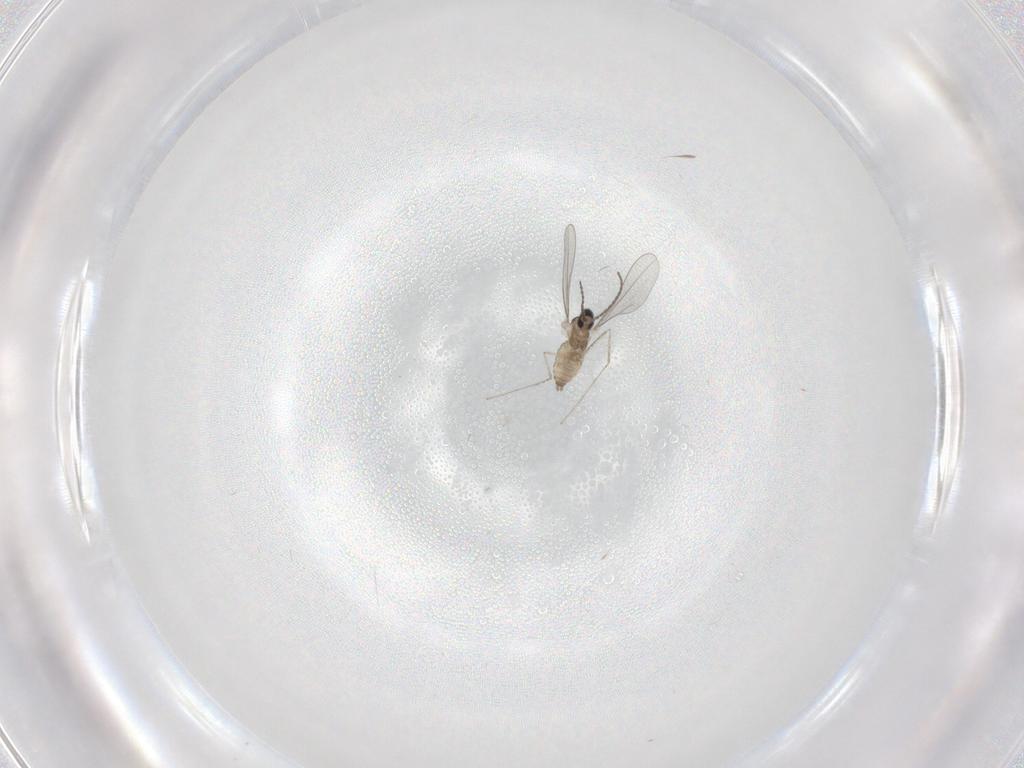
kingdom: Animalia
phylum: Arthropoda
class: Insecta
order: Diptera
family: Cecidomyiidae
